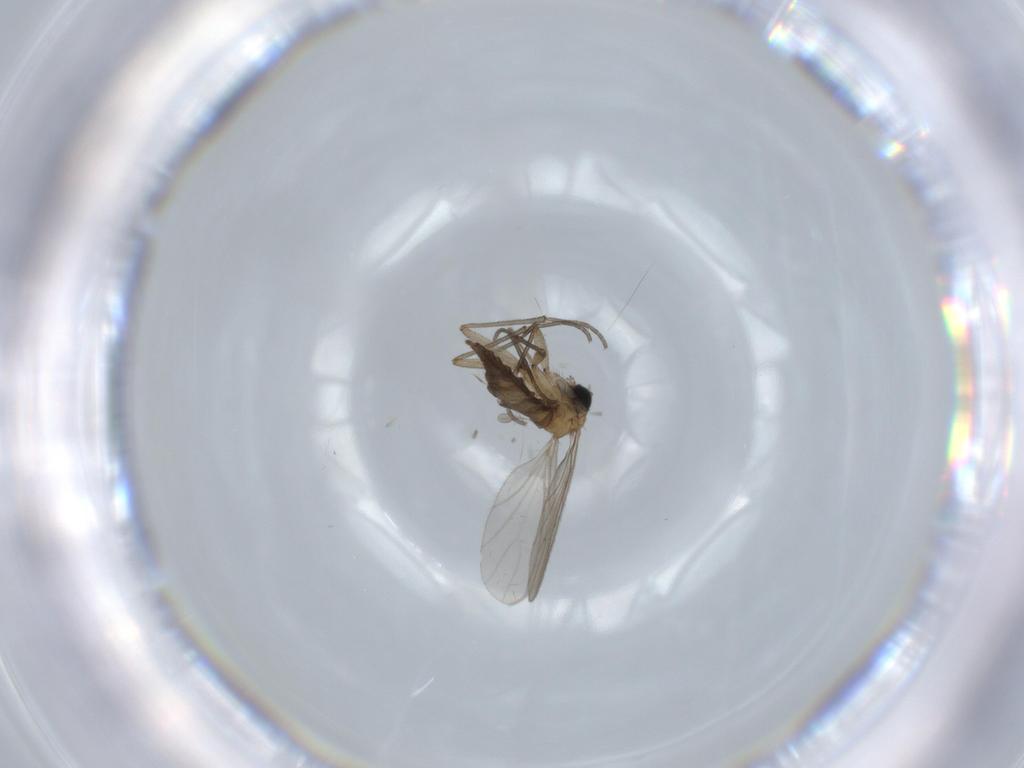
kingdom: Animalia
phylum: Arthropoda
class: Insecta
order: Diptera
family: Sciaridae
